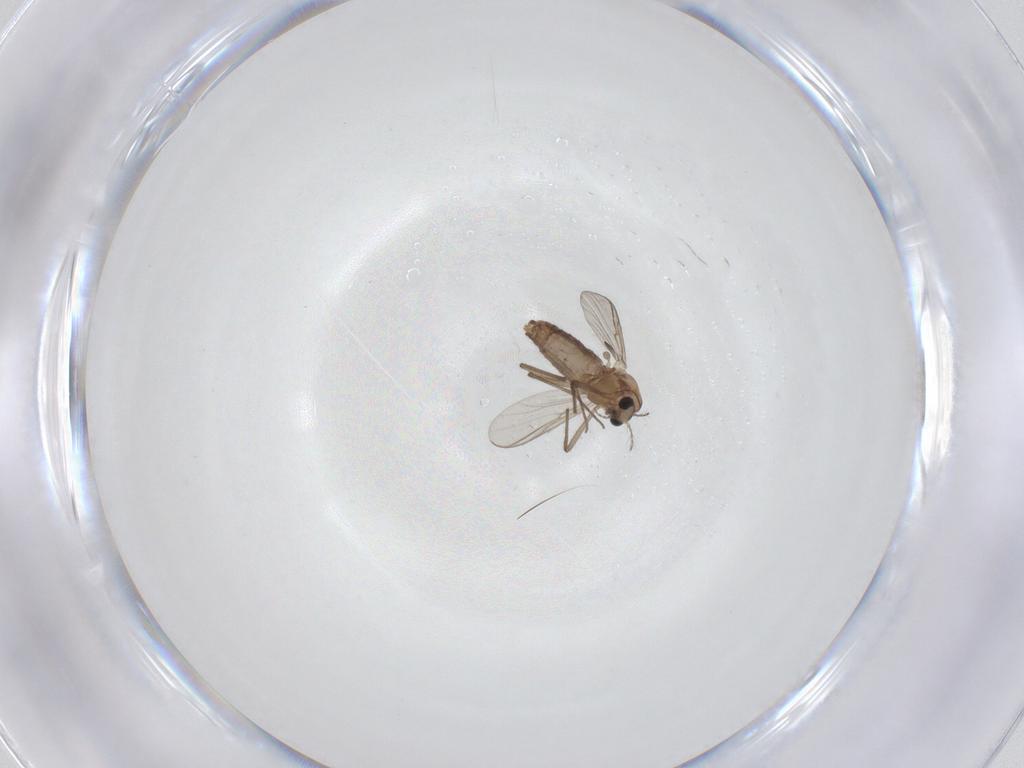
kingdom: Animalia
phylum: Arthropoda
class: Insecta
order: Diptera
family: Chironomidae
